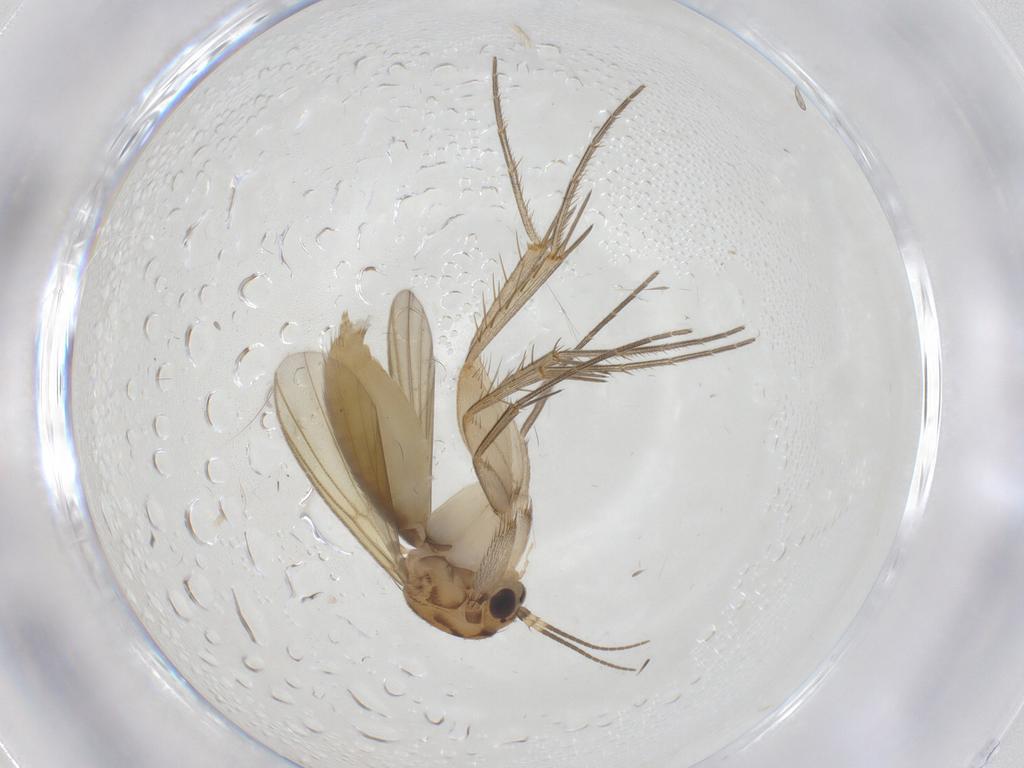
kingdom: Animalia
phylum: Arthropoda
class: Insecta
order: Diptera
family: Mycetophilidae
